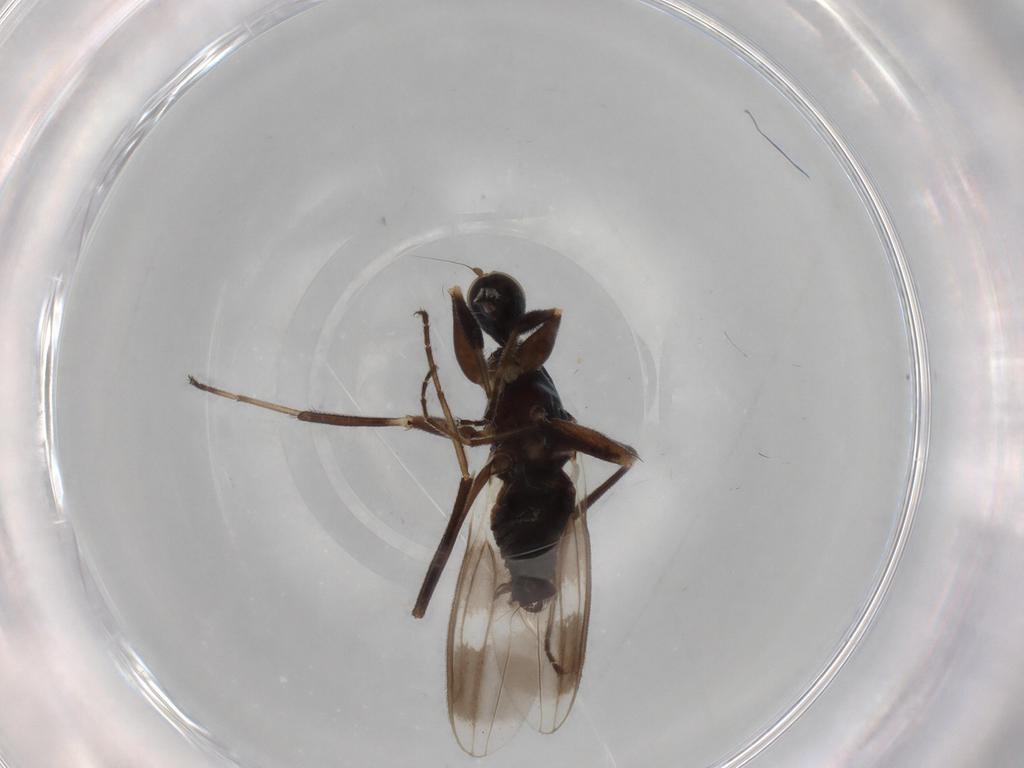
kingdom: Animalia
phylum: Arthropoda
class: Insecta
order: Diptera
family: Hybotidae
